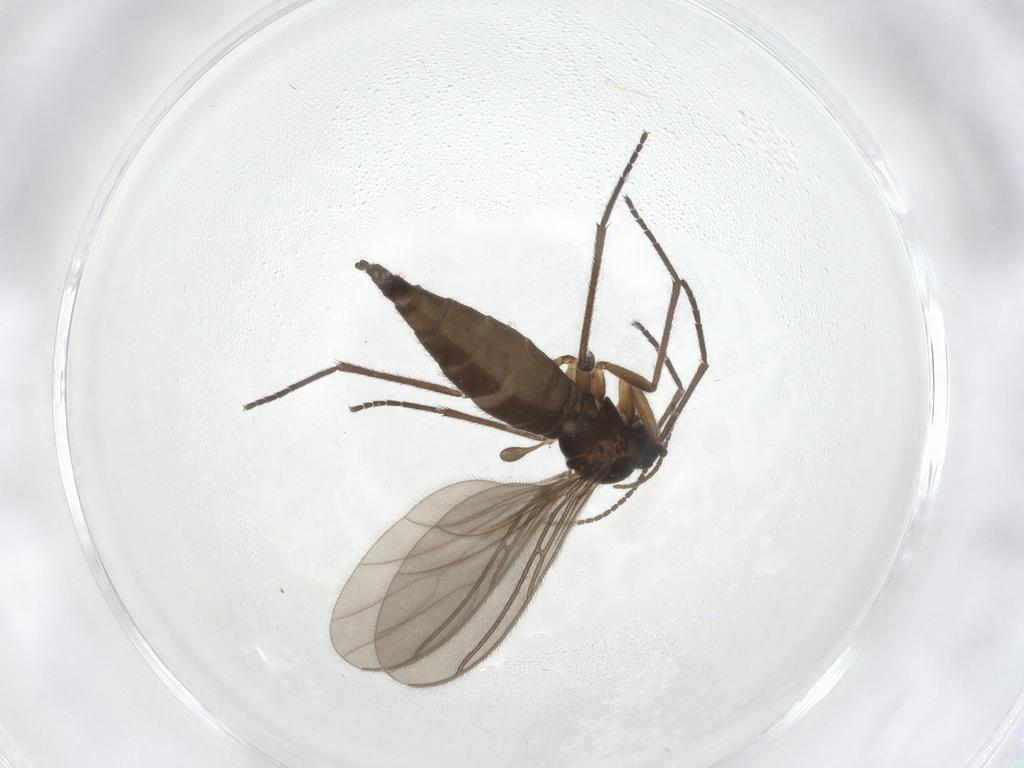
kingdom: Animalia
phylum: Arthropoda
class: Insecta
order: Diptera
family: Sciaridae
